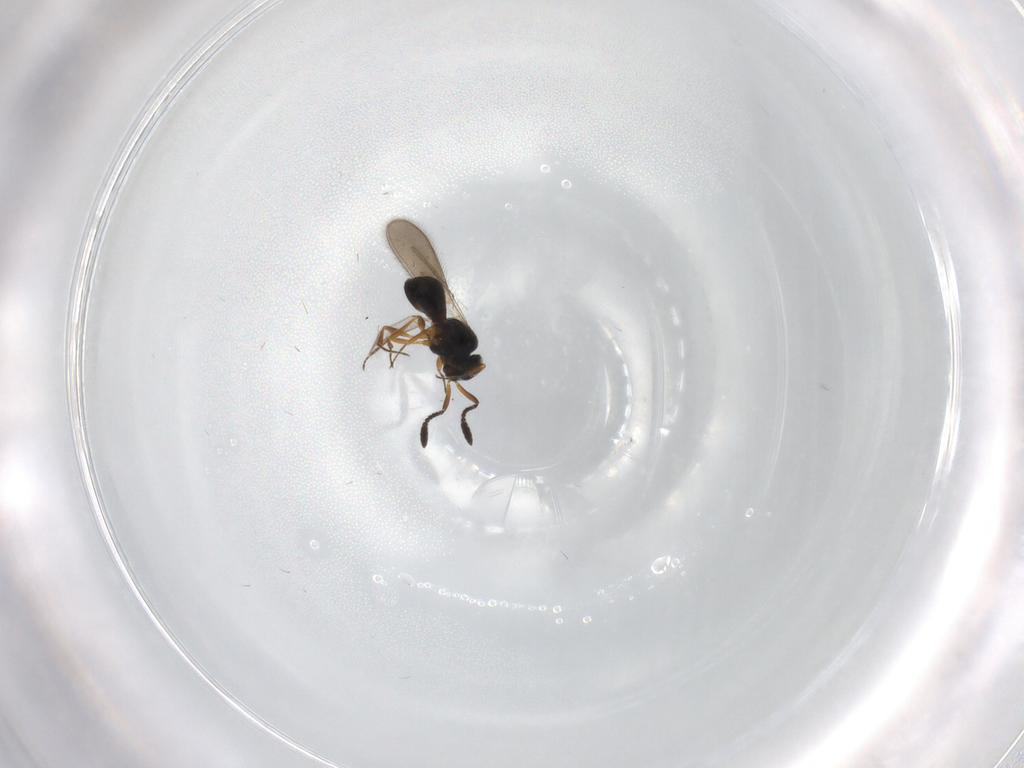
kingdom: Animalia
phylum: Arthropoda
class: Insecta
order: Hymenoptera
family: Scelionidae
